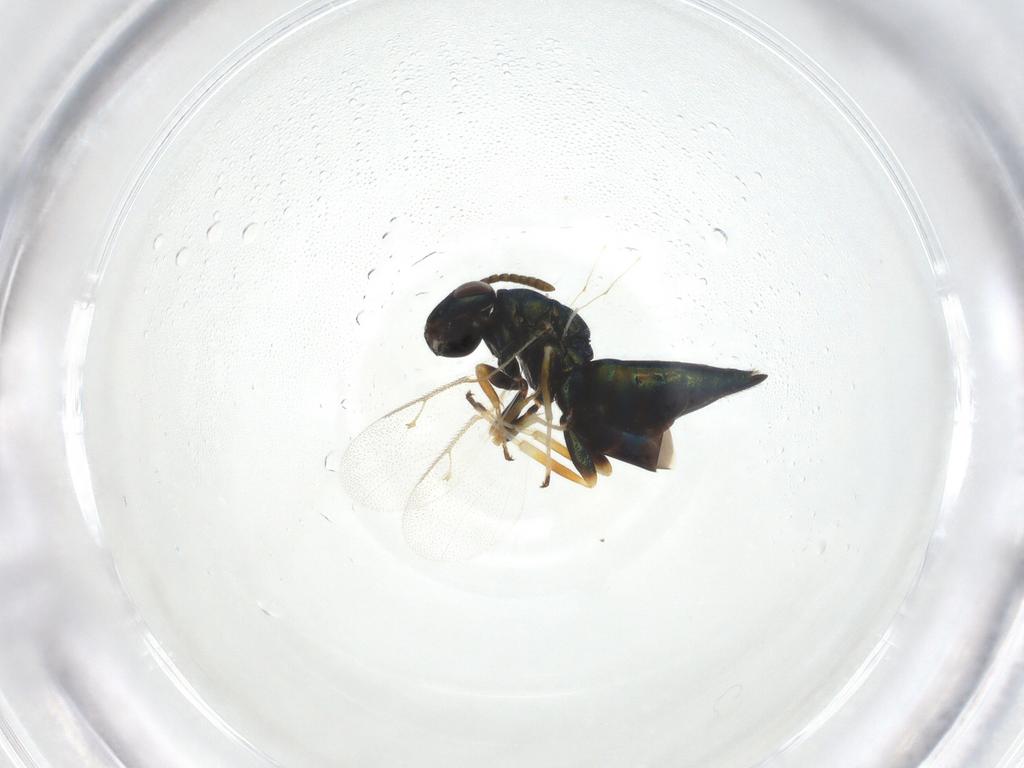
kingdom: Animalia
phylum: Arthropoda
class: Insecta
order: Hymenoptera
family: Pteromalidae
